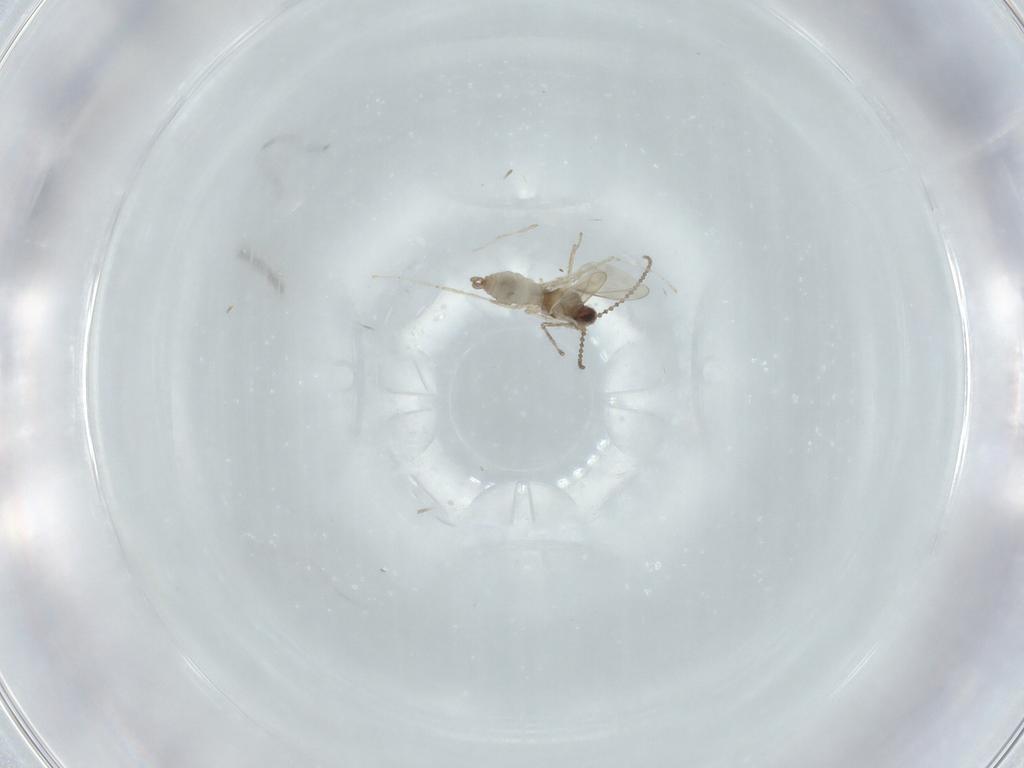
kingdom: Animalia
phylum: Arthropoda
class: Insecta
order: Diptera
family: Cecidomyiidae
